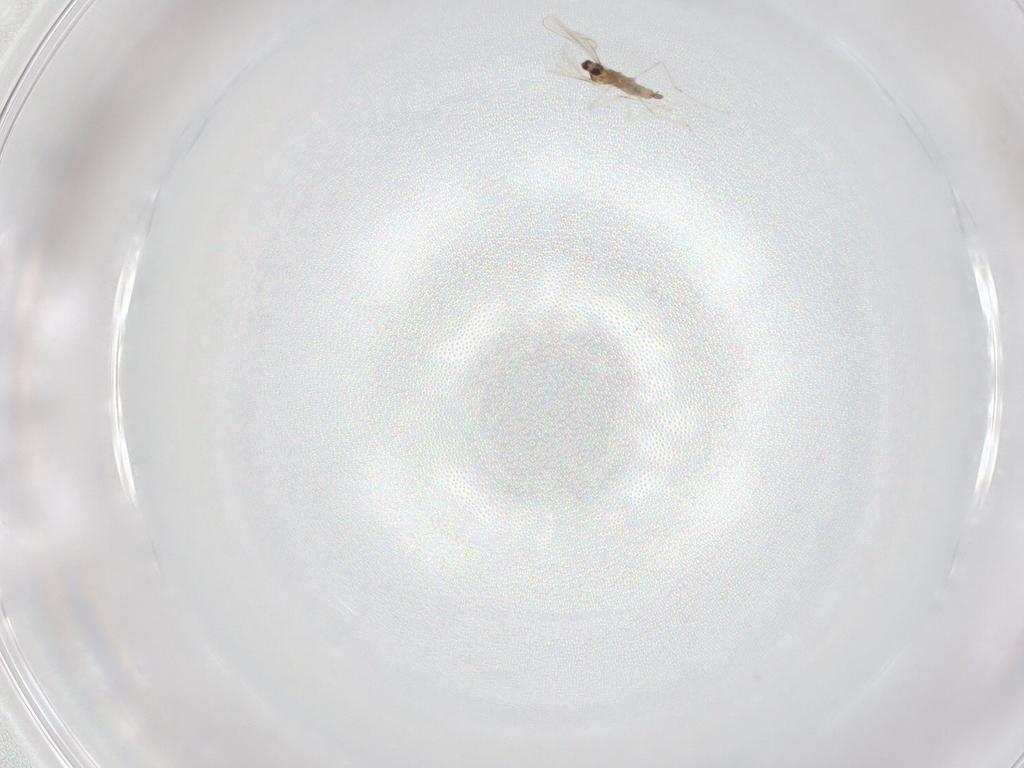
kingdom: Animalia
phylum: Arthropoda
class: Insecta
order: Diptera
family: Cecidomyiidae
